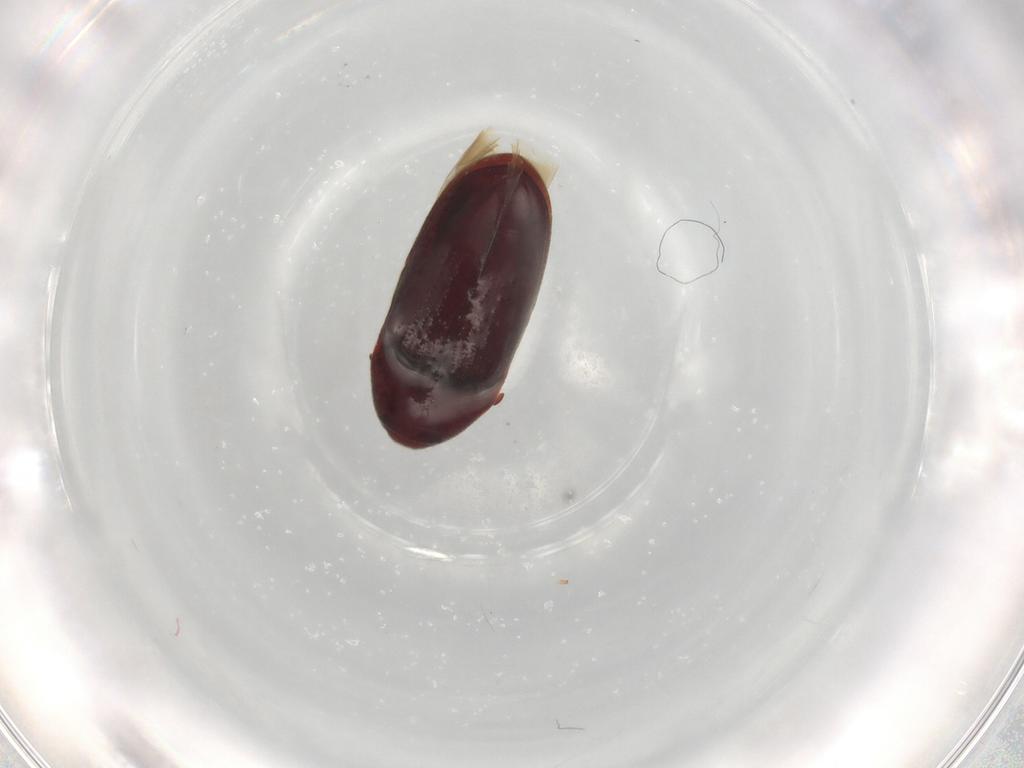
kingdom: Animalia
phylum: Arthropoda
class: Insecta
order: Coleoptera
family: Throscidae
